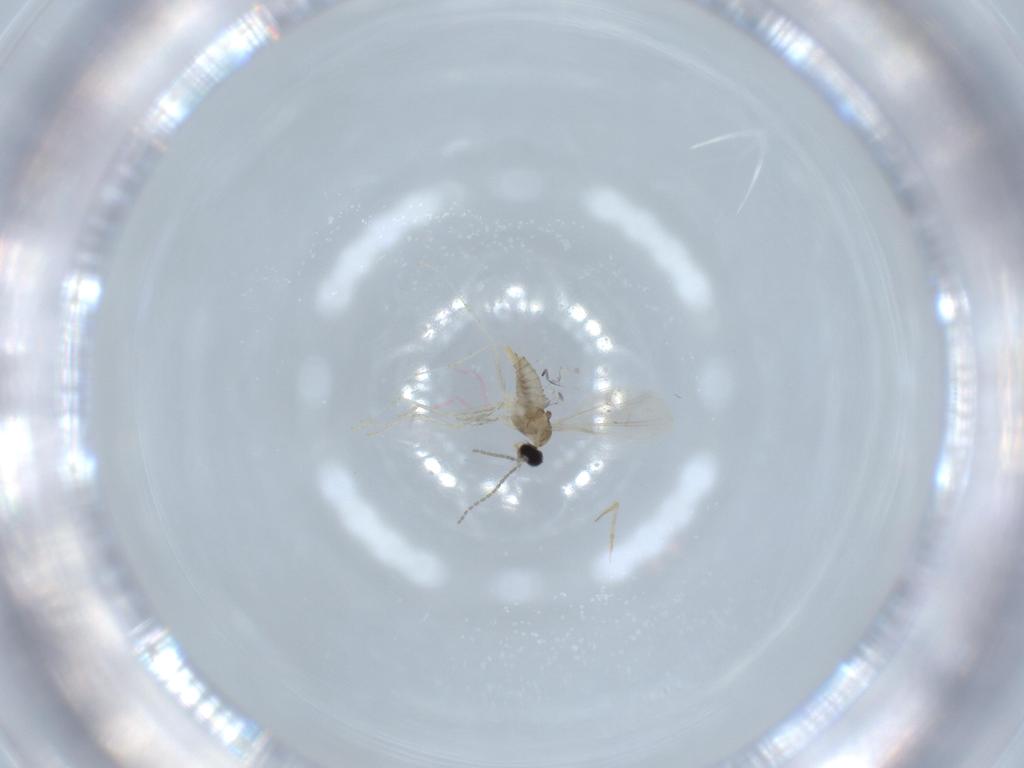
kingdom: Animalia
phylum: Arthropoda
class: Insecta
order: Diptera
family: Cecidomyiidae
